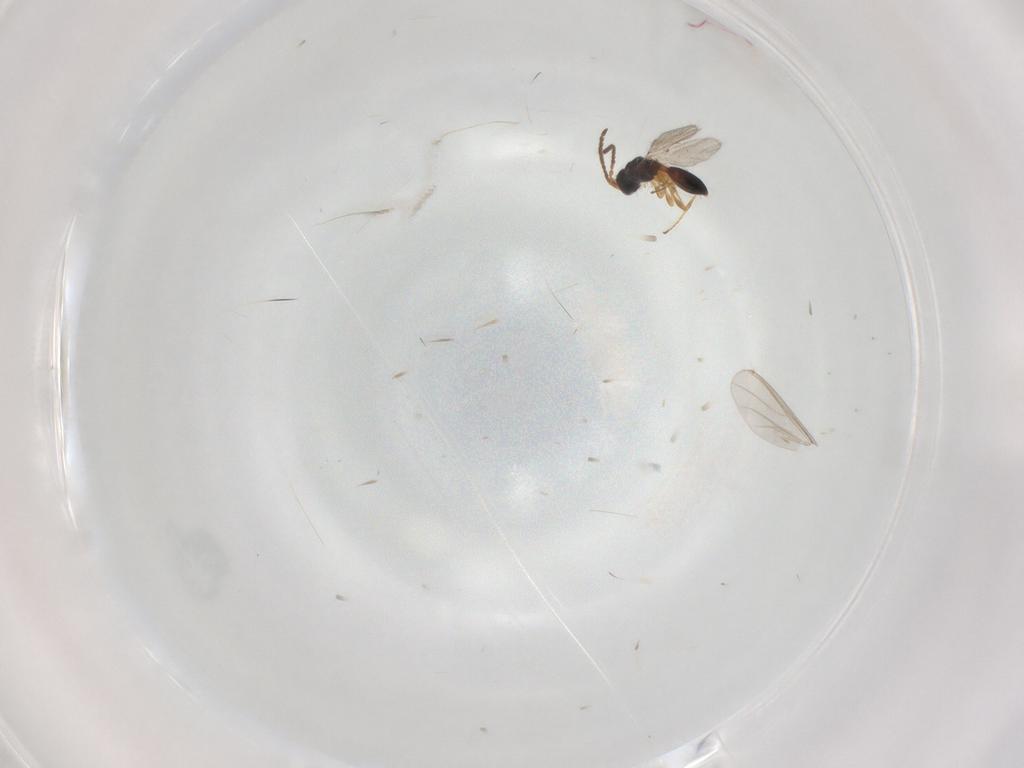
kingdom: Animalia
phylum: Arthropoda
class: Insecta
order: Hymenoptera
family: Diapriidae
